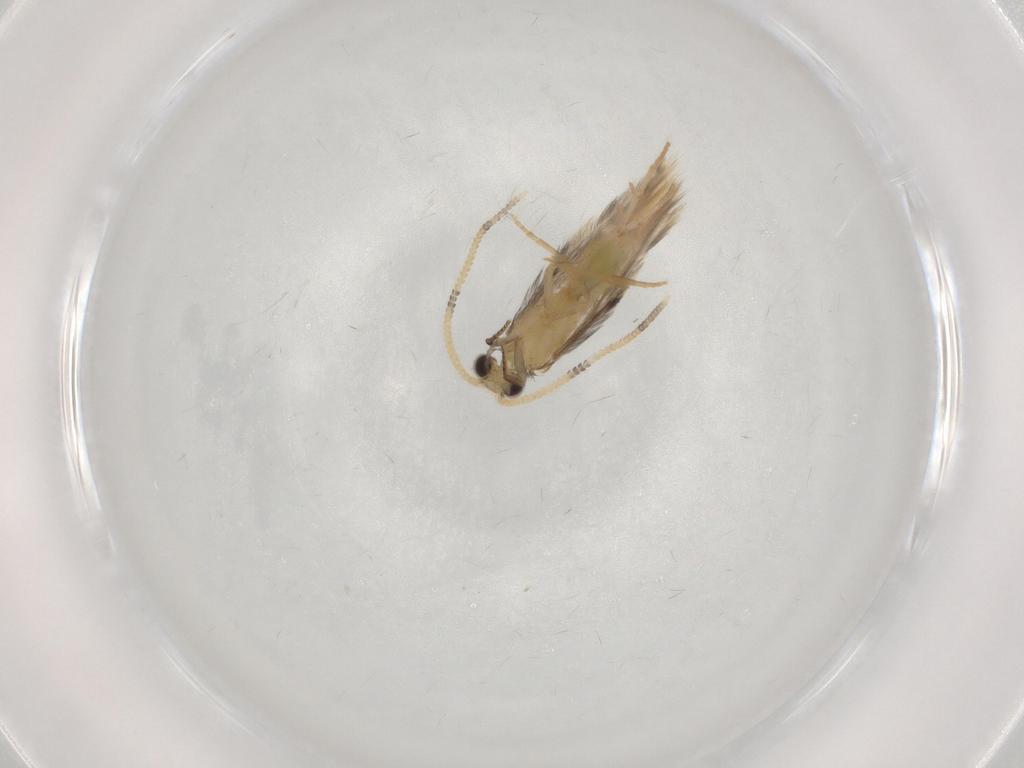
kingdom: Animalia
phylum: Arthropoda
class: Insecta
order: Trichoptera
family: Hydroptilidae
